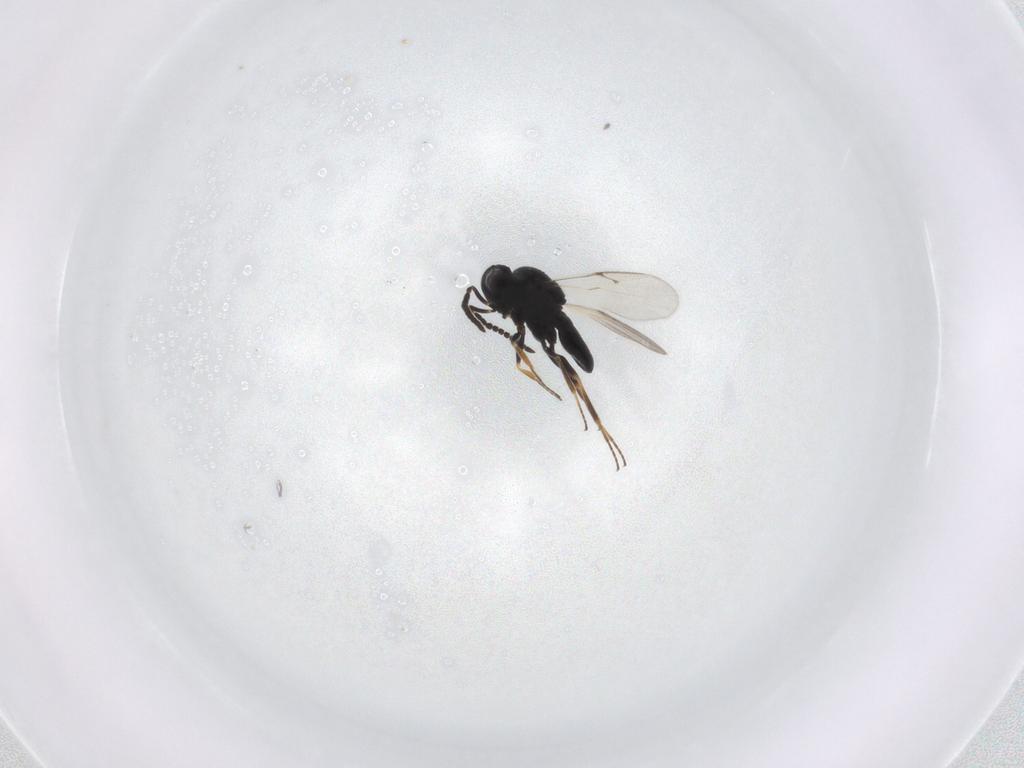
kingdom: Animalia
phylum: Arthropoda
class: Insecta
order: Hymenoptera
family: Scelionidae
